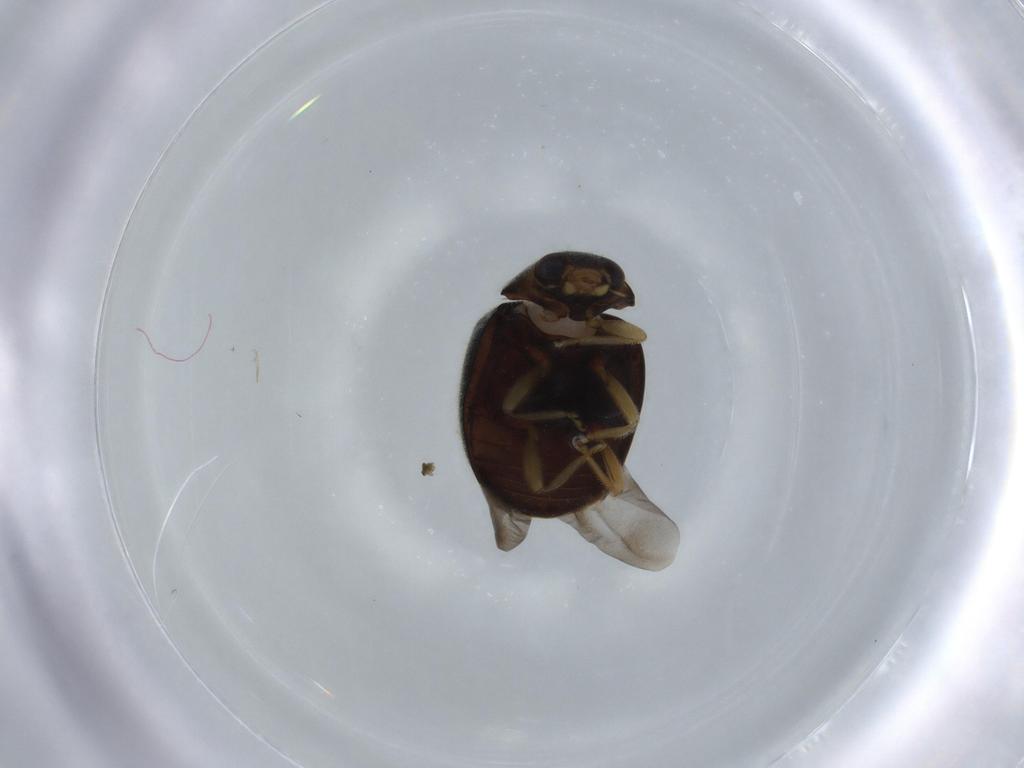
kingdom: Animalia
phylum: Arthropoda
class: Insecta
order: Coleoptera
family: Coccinellidae
